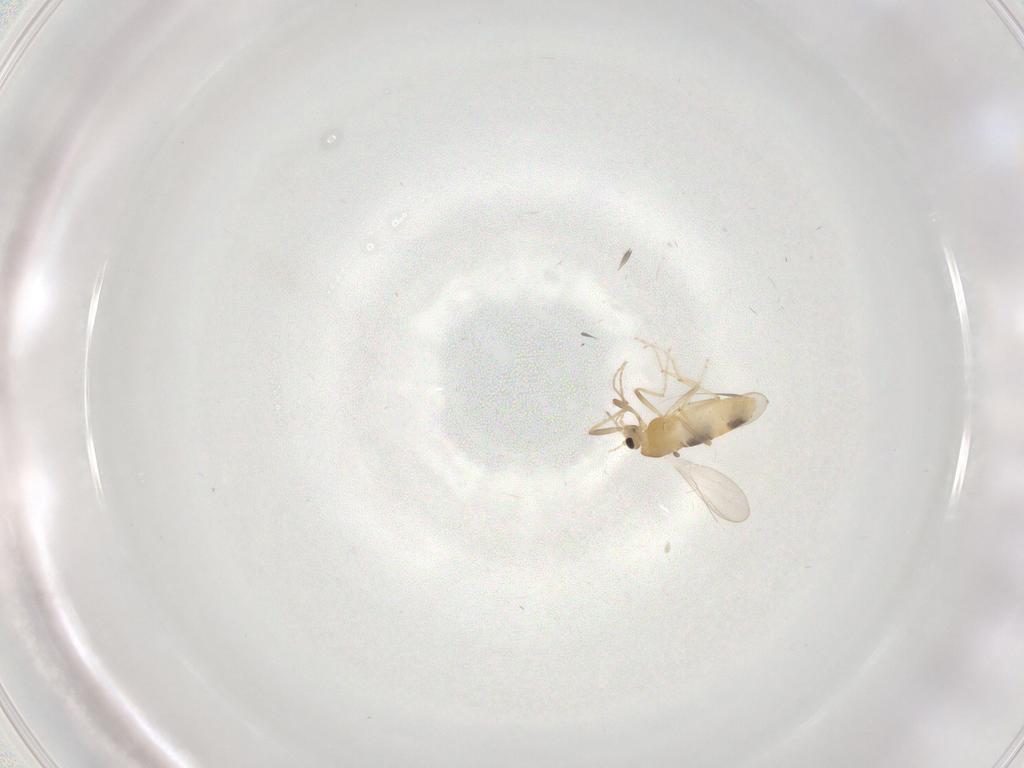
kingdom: Animalia
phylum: Arthropoda
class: Insecta
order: Diptera
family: Chironomidae
